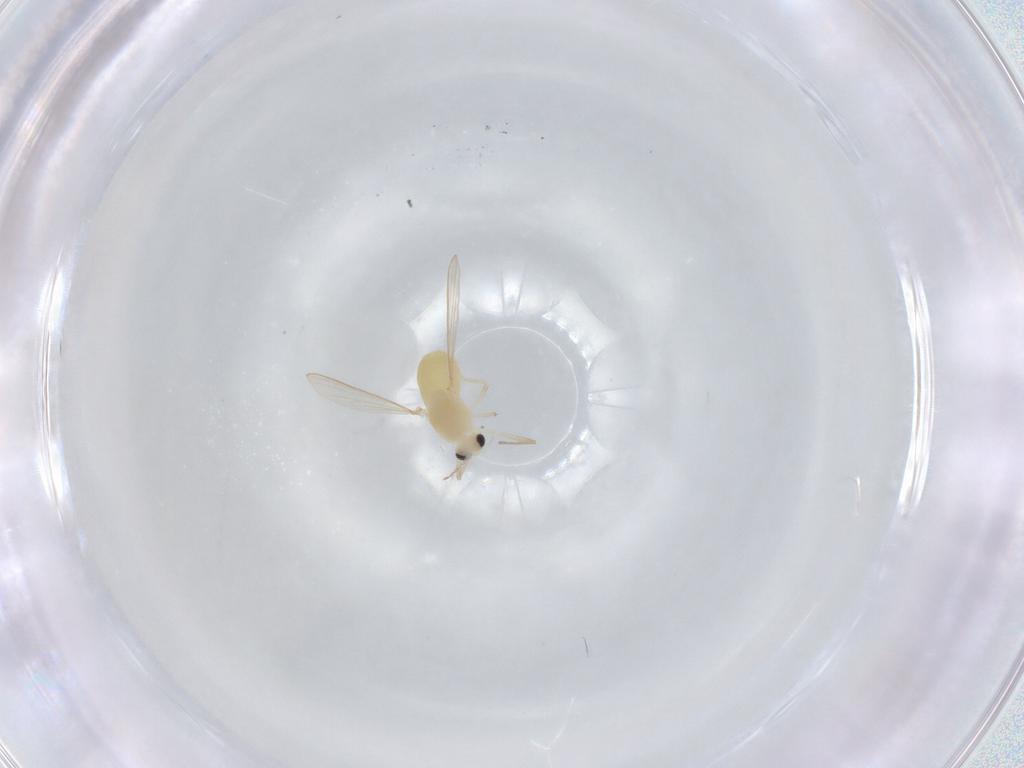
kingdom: Animalia
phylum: Arthropoda
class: Insecta
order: Diptera
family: Chironomidae
